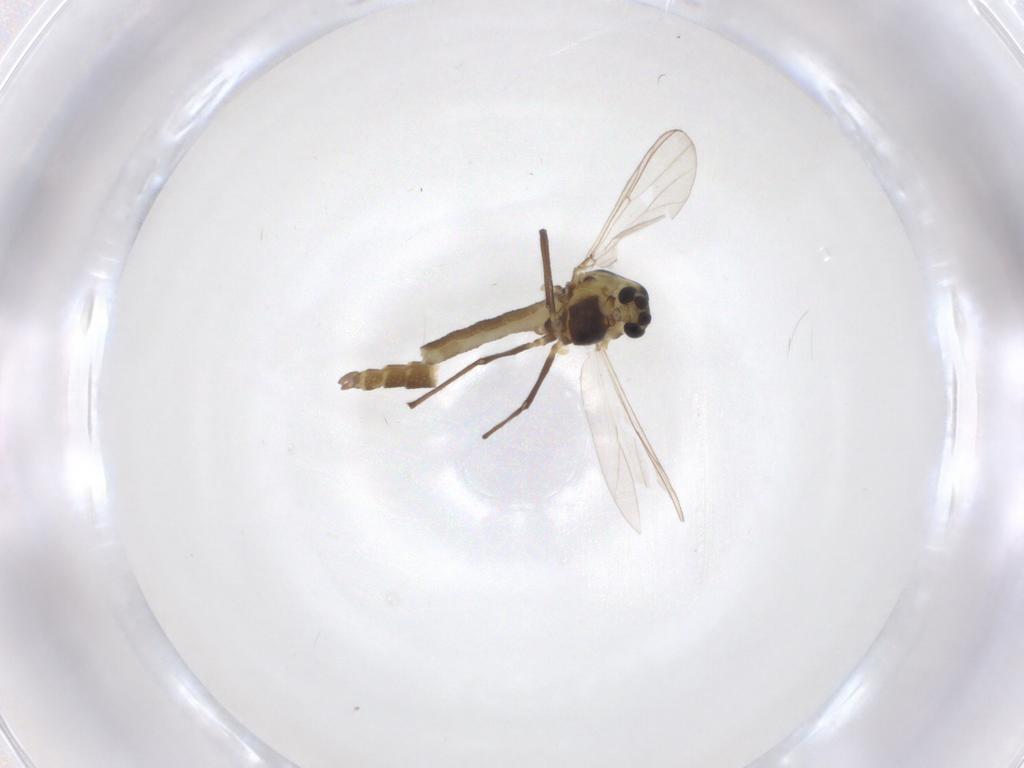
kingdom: Animalia
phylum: Arthropoda
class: Insecta
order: Diptera
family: Chironomidae
